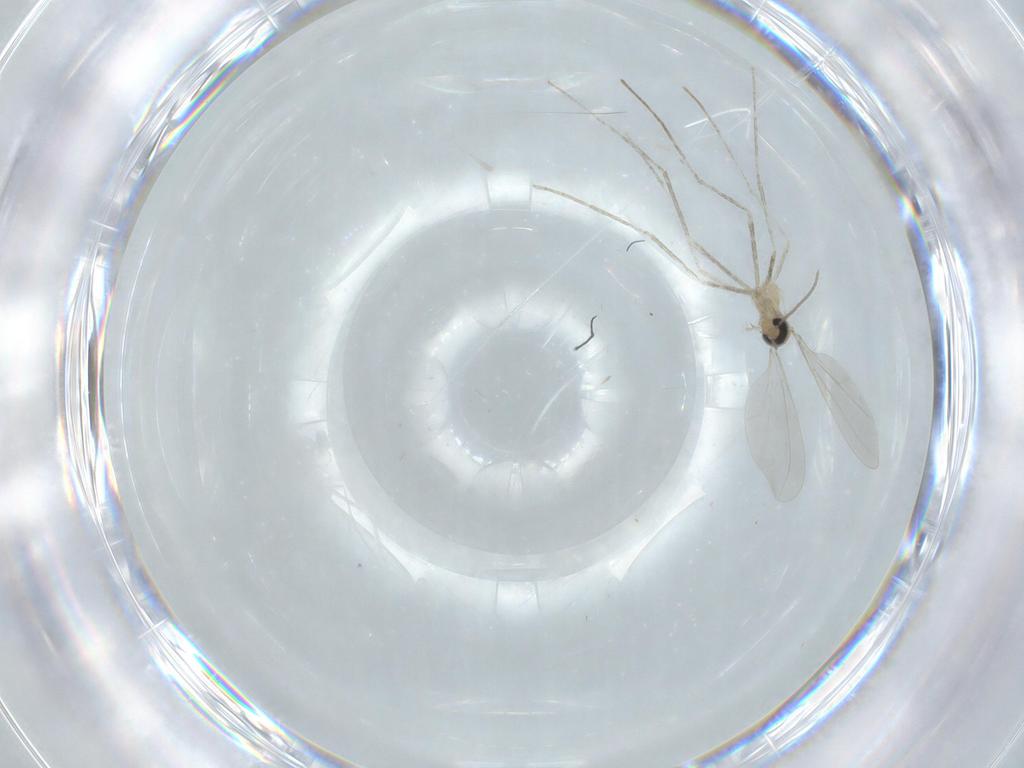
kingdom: Animalia
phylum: Arthropoda
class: Insecta
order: Diptera
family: Cecidomyiidae
